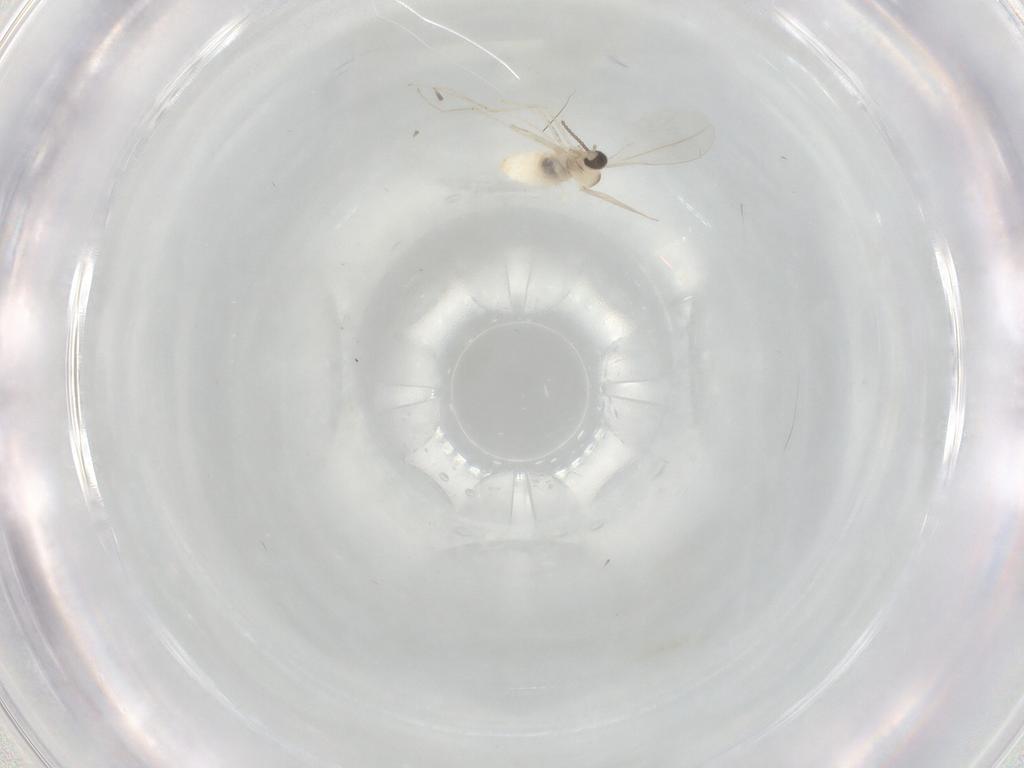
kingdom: Animalia
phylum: Arthropoda
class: Insecta
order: Diptera
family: Cecidomyiidae
